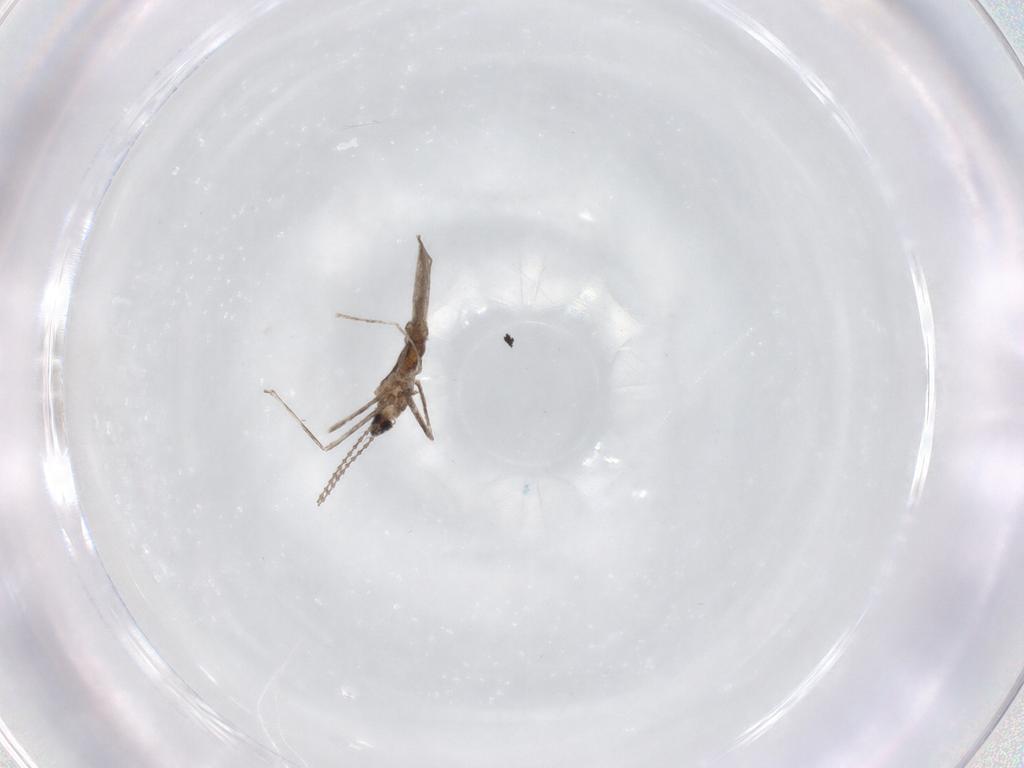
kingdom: Animalia
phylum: Arthropoda
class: Insecta
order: Diptera
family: Cecidomyiidae
